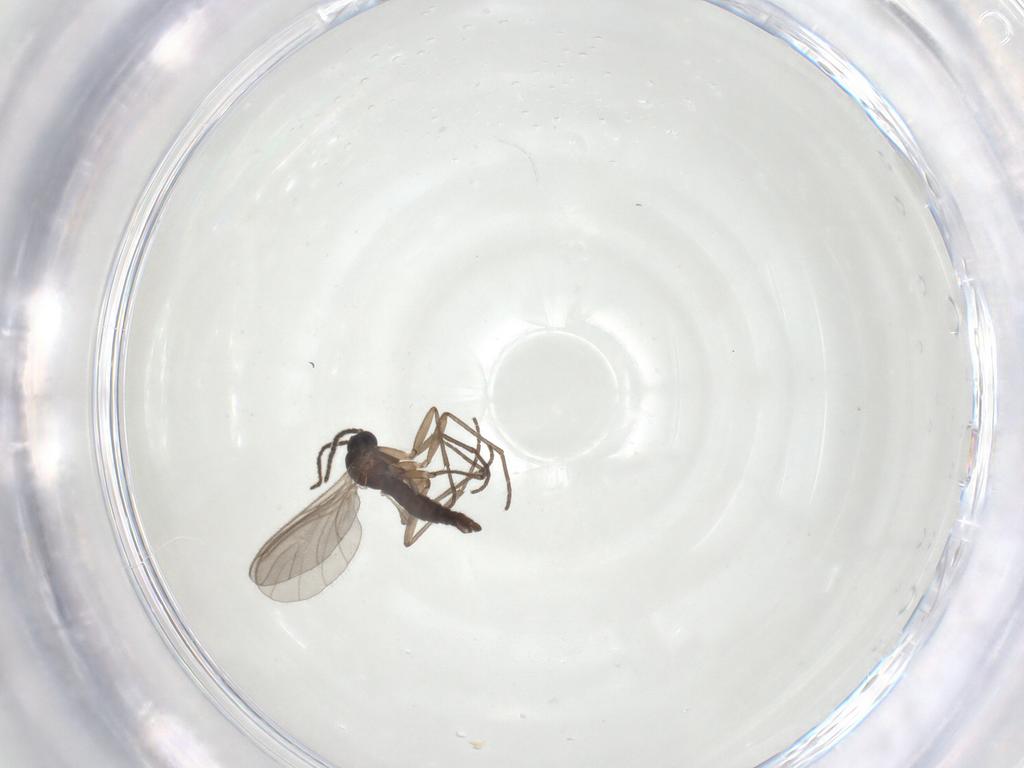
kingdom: Animalia
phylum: Arthropoda
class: Insecta
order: Diptera
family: Sciaridae
